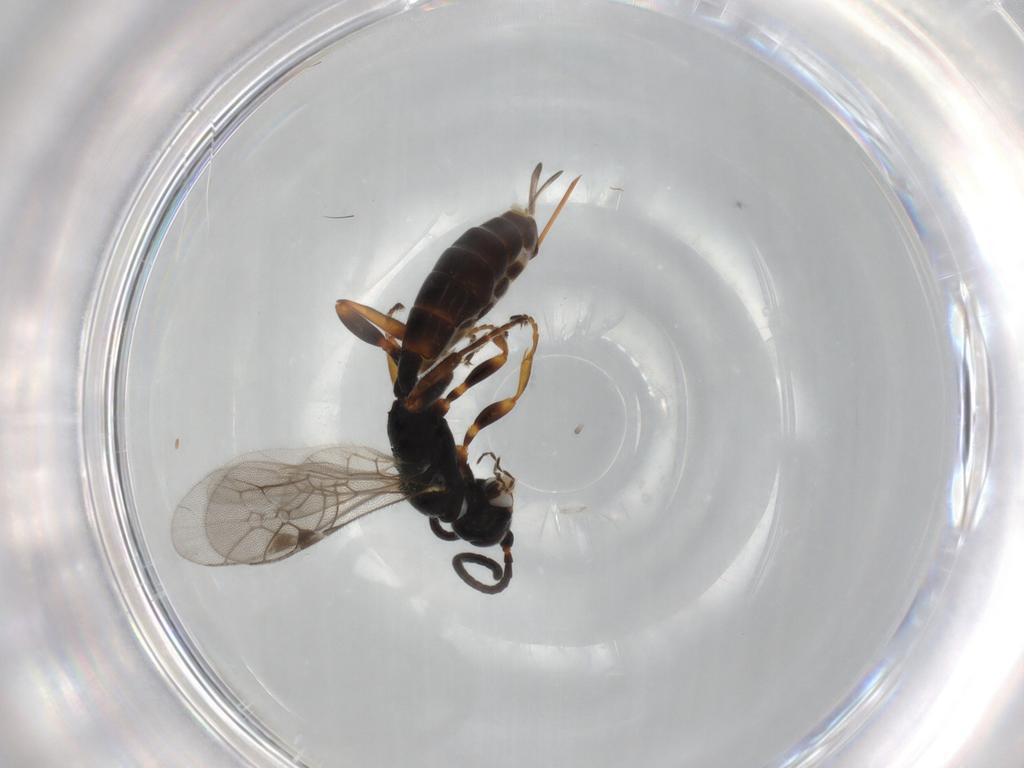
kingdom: Animalia
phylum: Arthropoda
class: Insecta
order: Hymenoptera
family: Ichneumonidae
